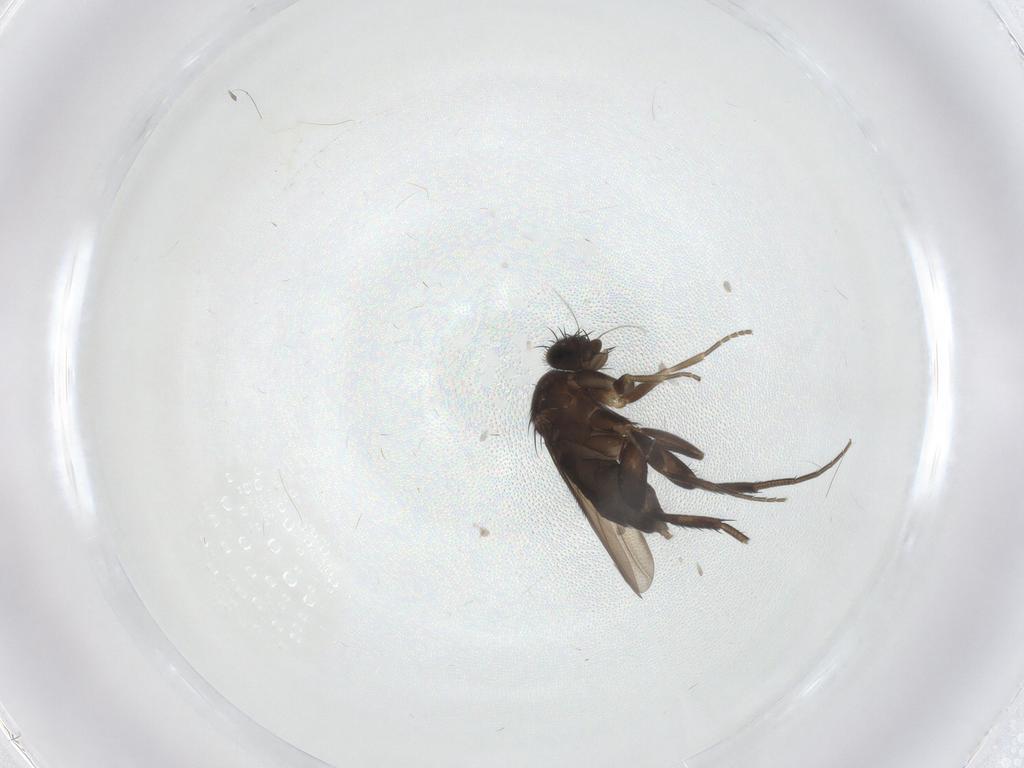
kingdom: Animalia
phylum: Arthropoda
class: Insecta
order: Diptera
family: Phoridae
